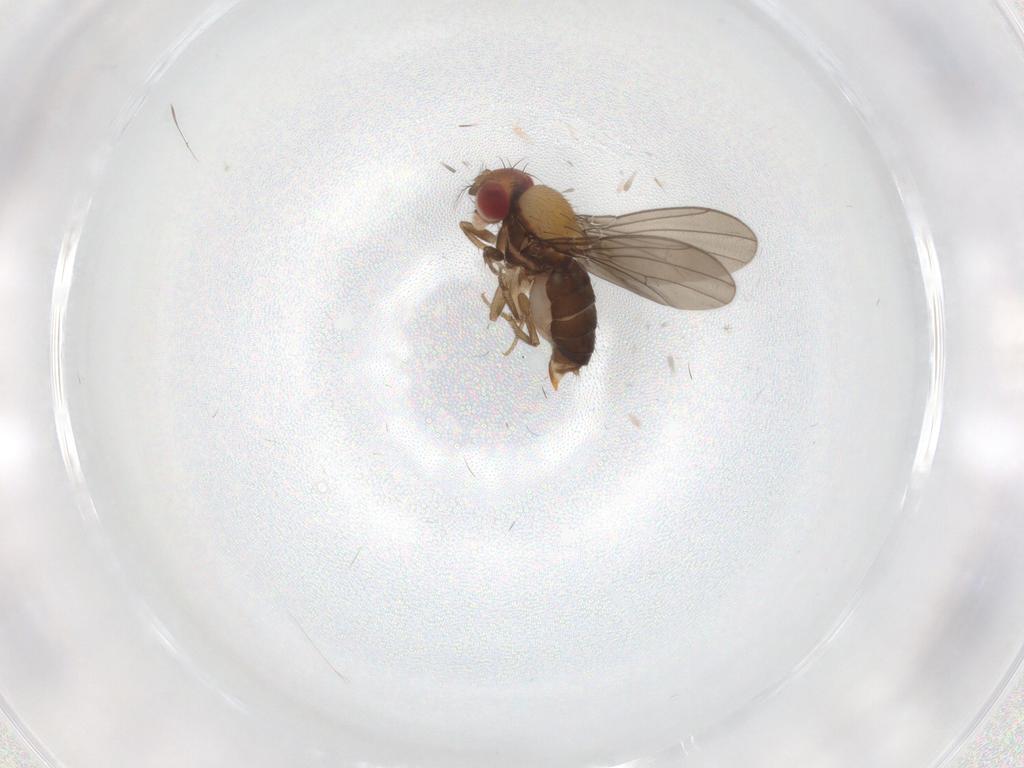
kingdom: Animalia
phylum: Arthropoda
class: Insecta
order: Diptera
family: Drosophilidae
